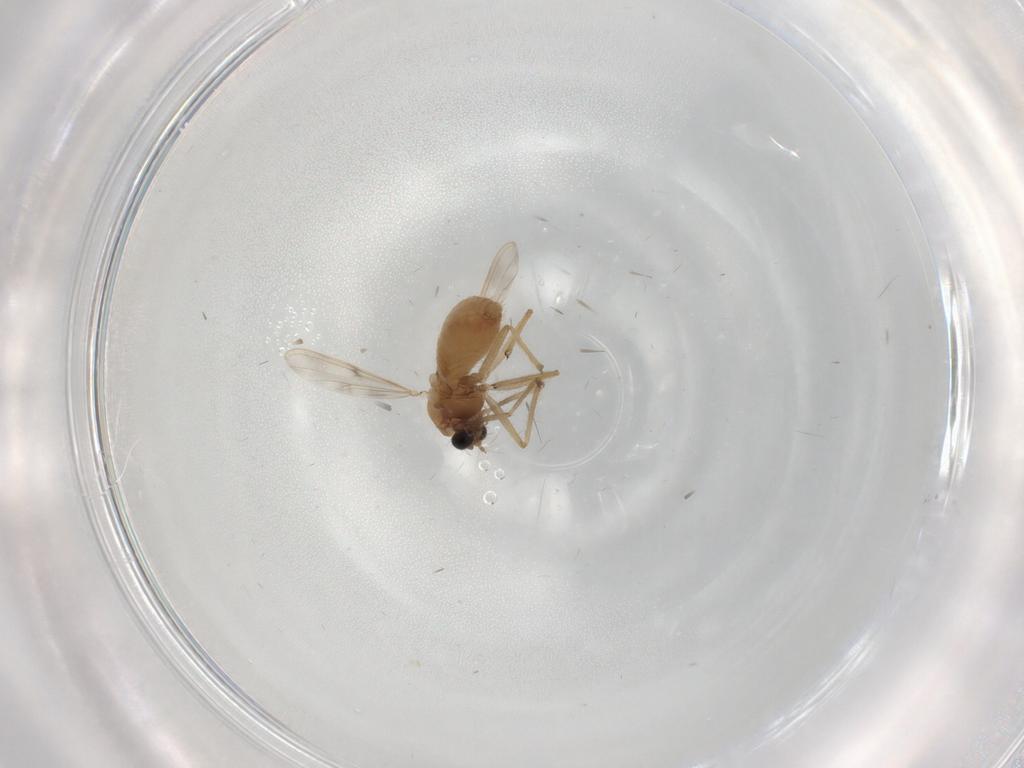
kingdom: Animalia
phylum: Arthropoda
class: Insecta
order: Diptera
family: Chironomidae
